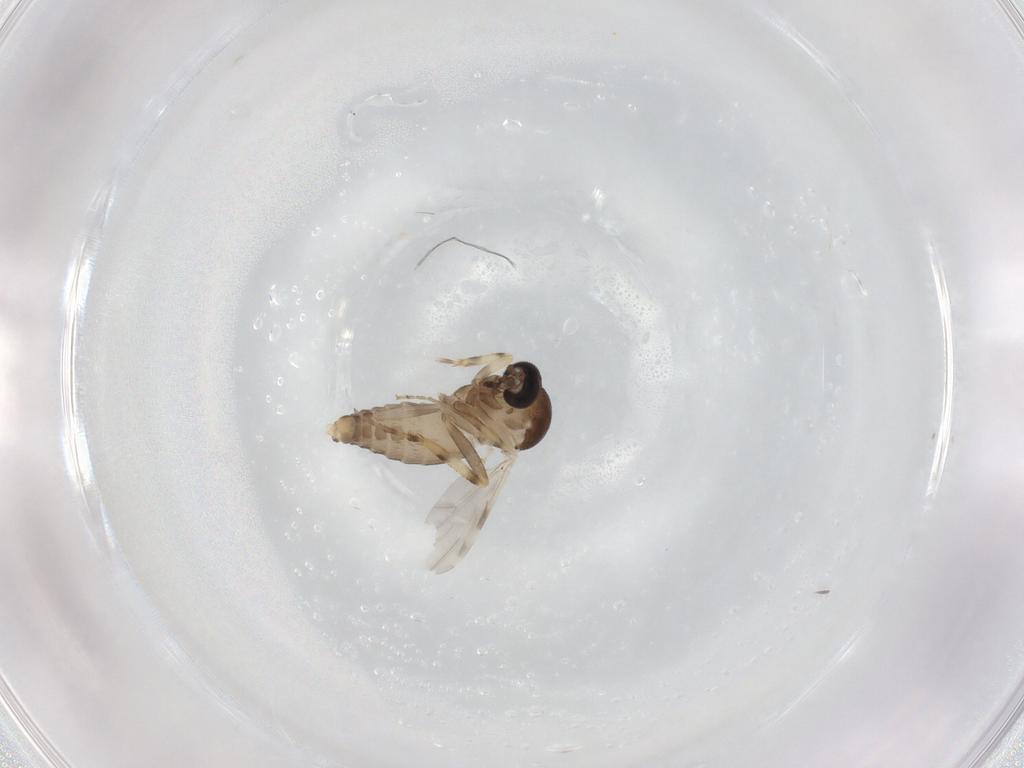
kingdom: Animalia
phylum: Arthropoda
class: Insecta
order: Diptera
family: Ceratopogonidae
